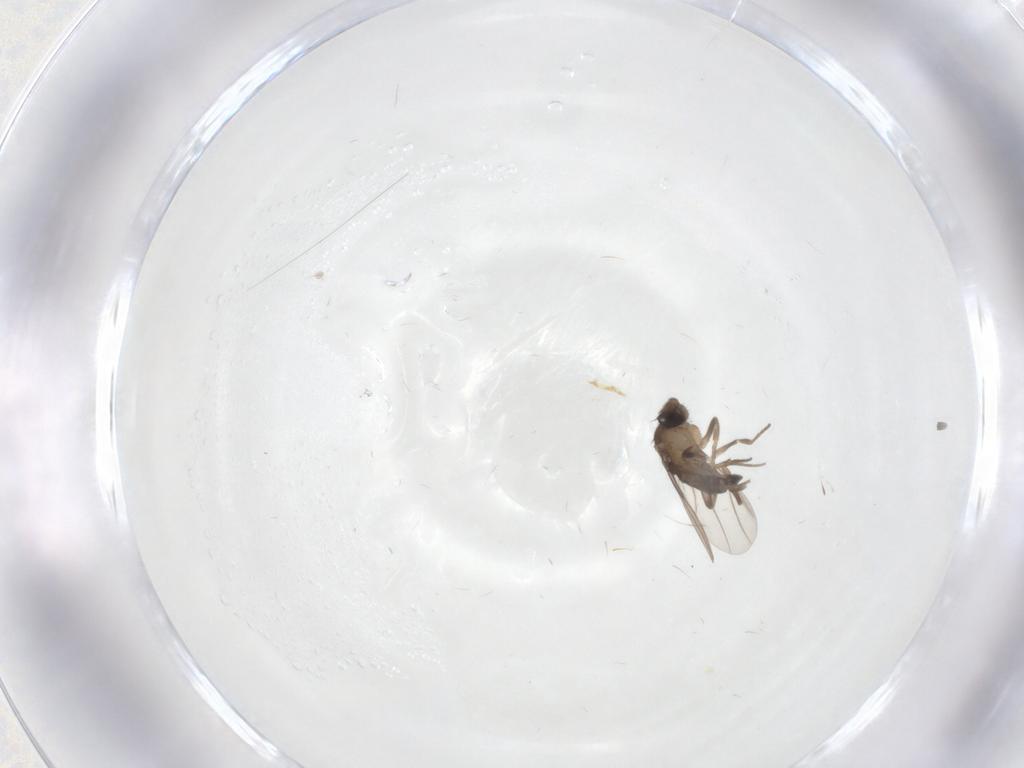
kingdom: Animalia
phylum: Arthropoda
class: Insecta
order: Diptera
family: Phoridae
